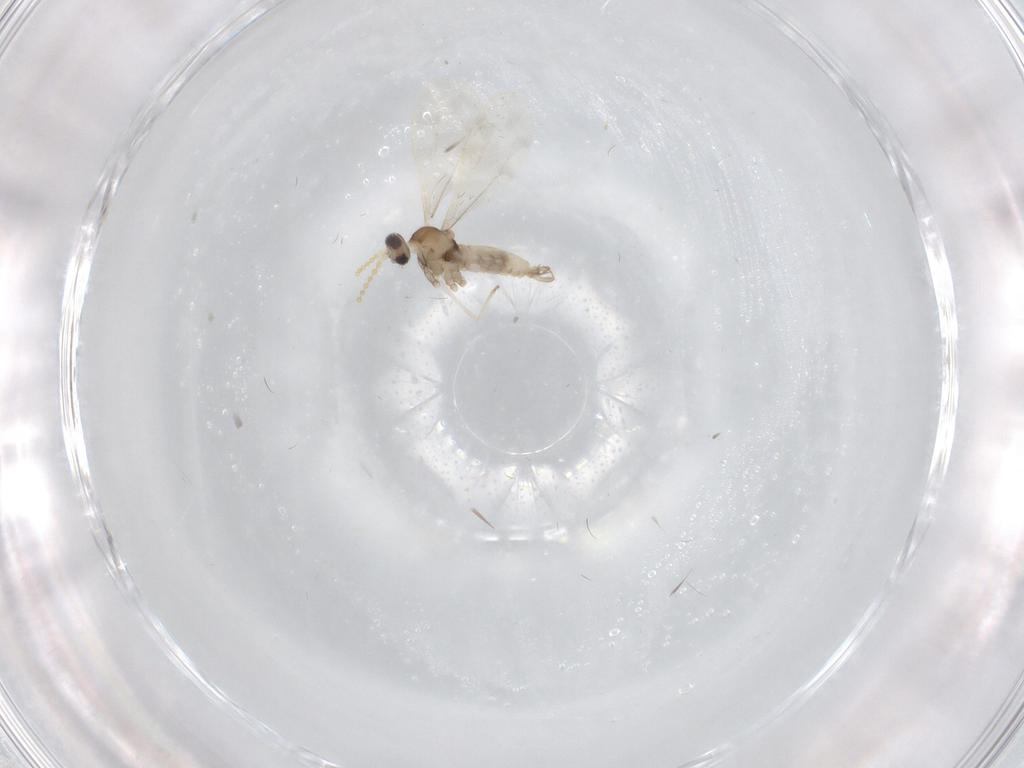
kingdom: Animalia
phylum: Arthropoda
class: Insecta
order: Diptera
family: Cecidomyiidae
